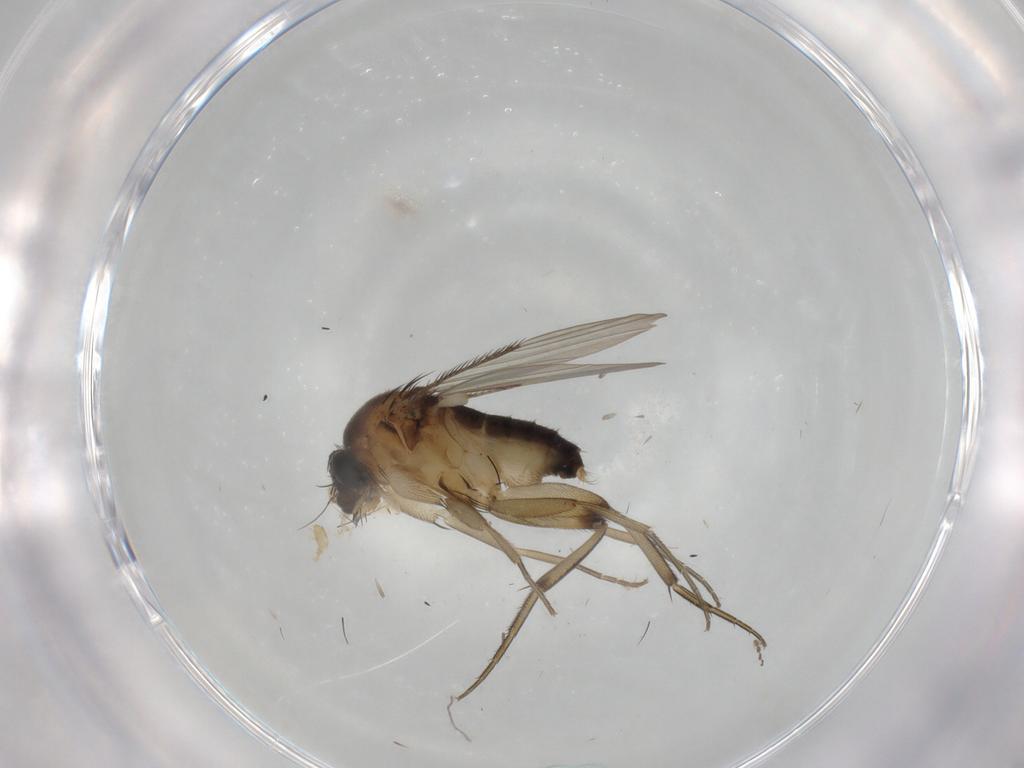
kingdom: Animalia
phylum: Arthropoda
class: Insecta
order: Diptera
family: Phoridae
